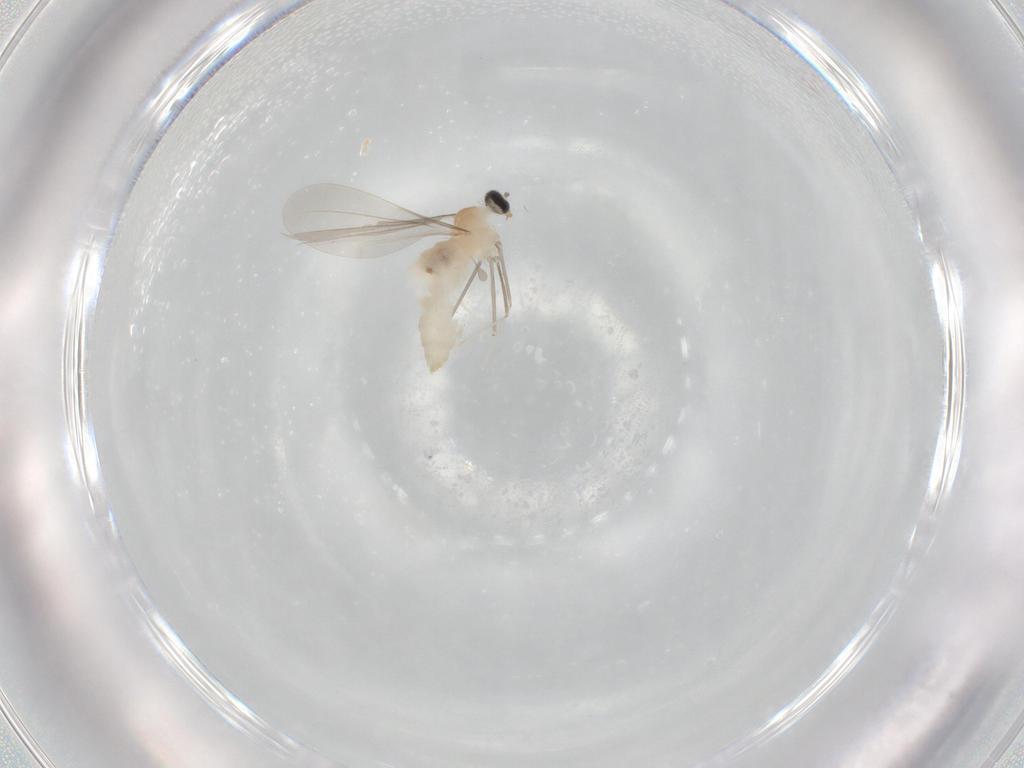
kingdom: Animalia
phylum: Arthropoda
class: Insecta
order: Diptera
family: Cecidomyiidae
